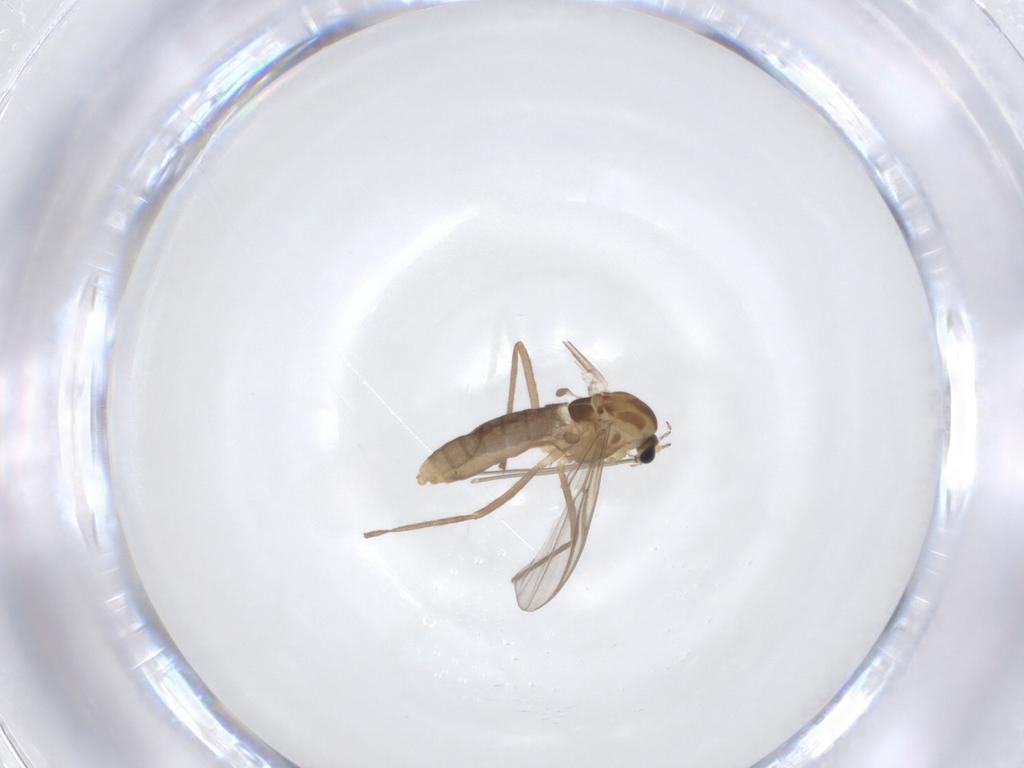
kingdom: Animalia
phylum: Arthropoda
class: Insecta
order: Diptera
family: Chironomidae
